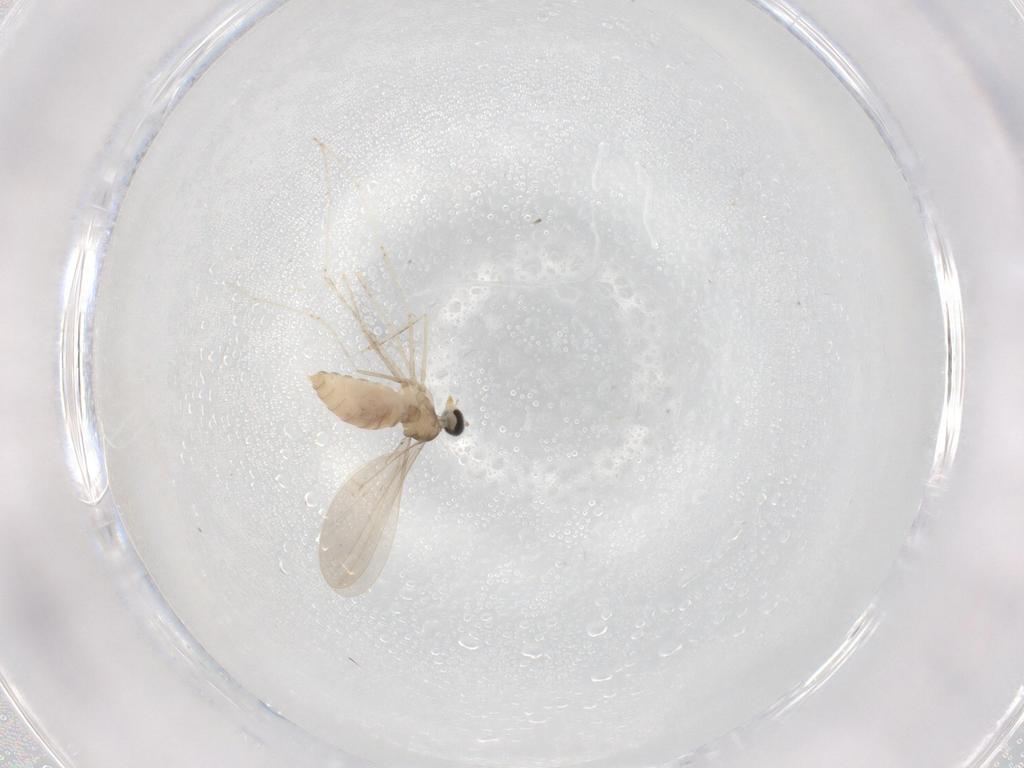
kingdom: Animalia
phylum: Arthropoda
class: Insecta
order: Diptera
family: Cecidomyiidae
